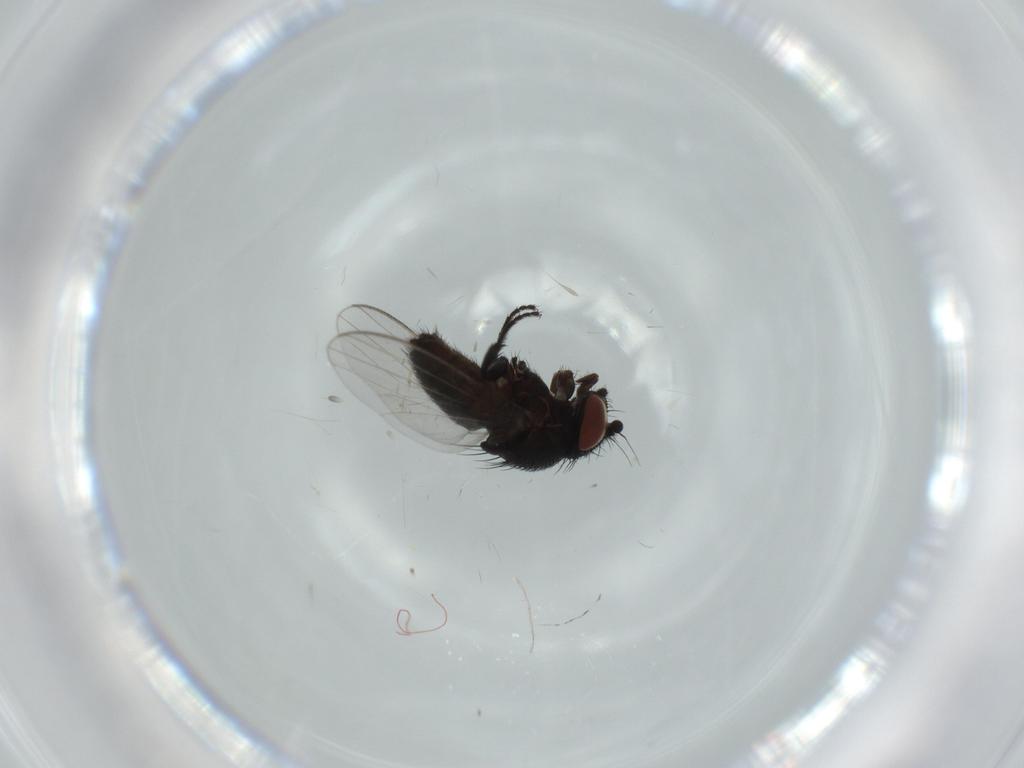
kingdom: Animalia
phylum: Arthropoda
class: Insecta
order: Diptera
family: Milichiidae
